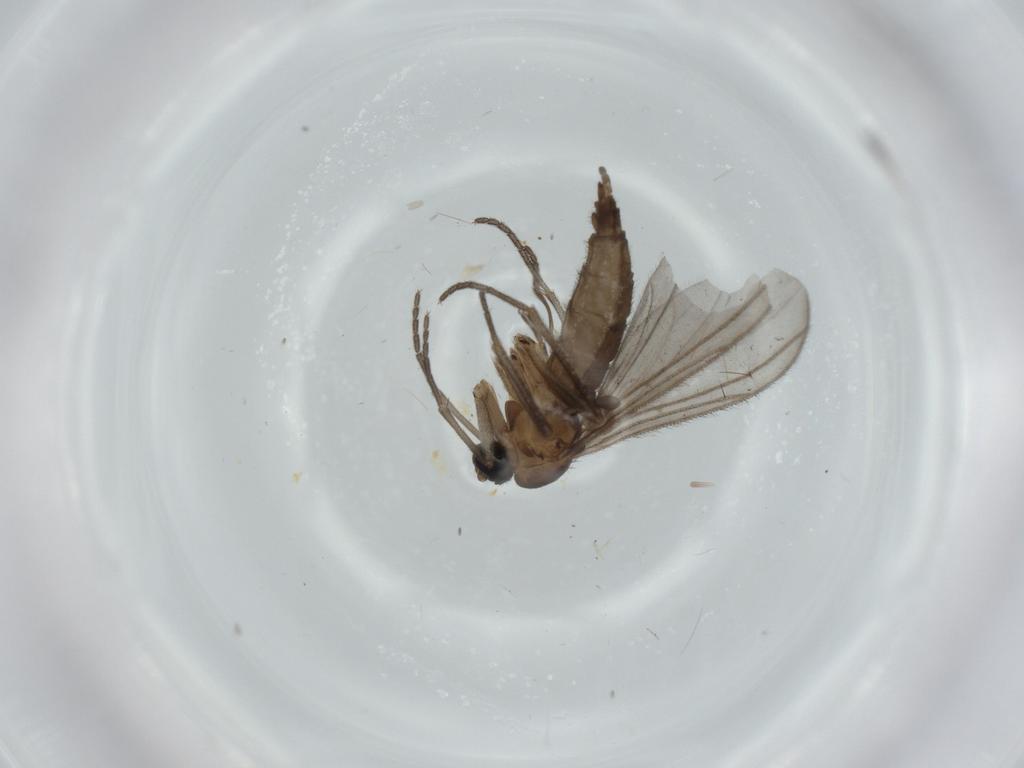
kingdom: Animalia
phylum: Arthropoda
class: Insecta
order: Diptera
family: Sciaridae
